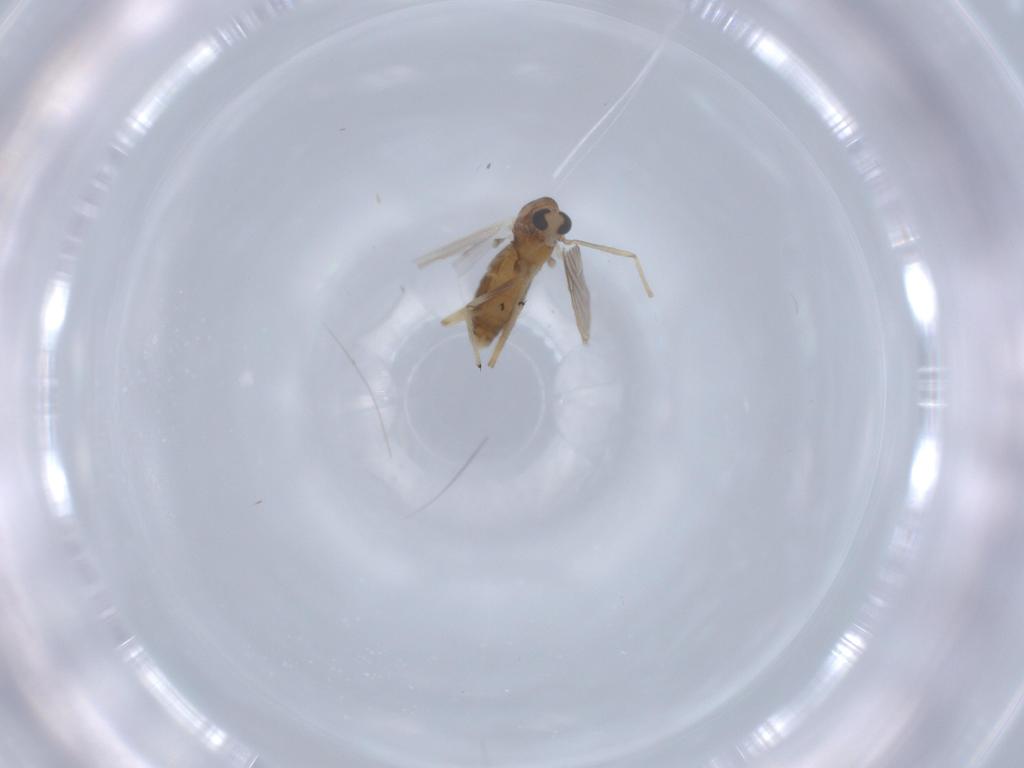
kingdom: Animalia
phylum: Arthropoda
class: Insecta
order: Diptera
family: Chironomidae
